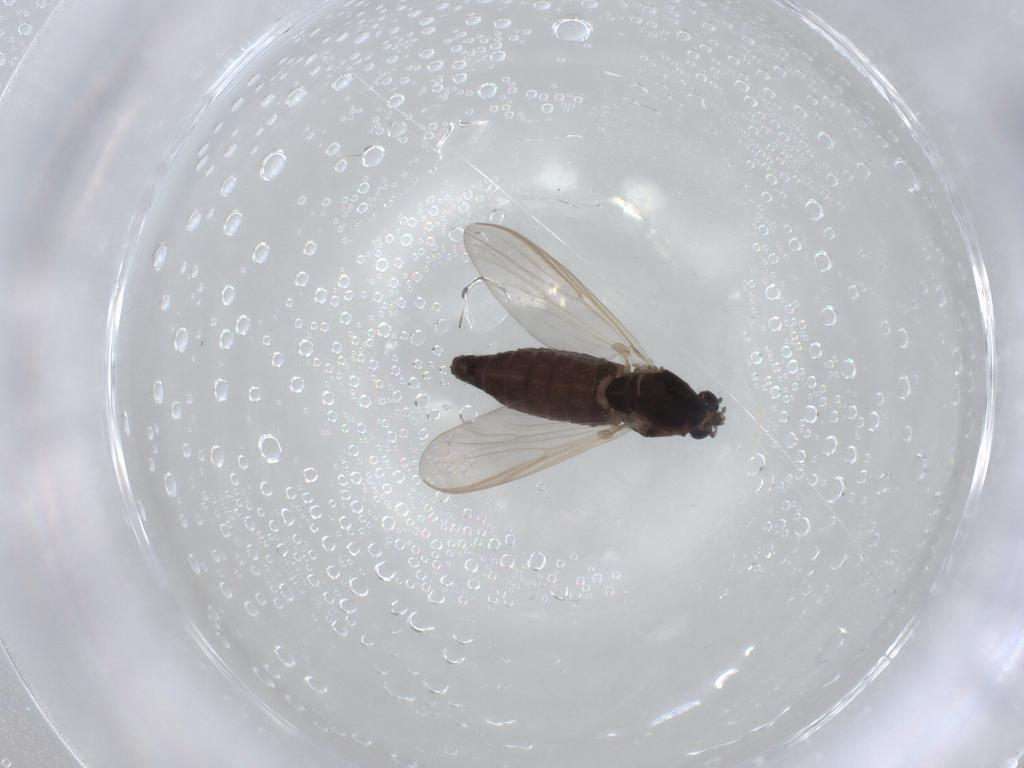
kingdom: Animalia
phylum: Arthropoda
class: Insecta
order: Diptera
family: Chironomidae
